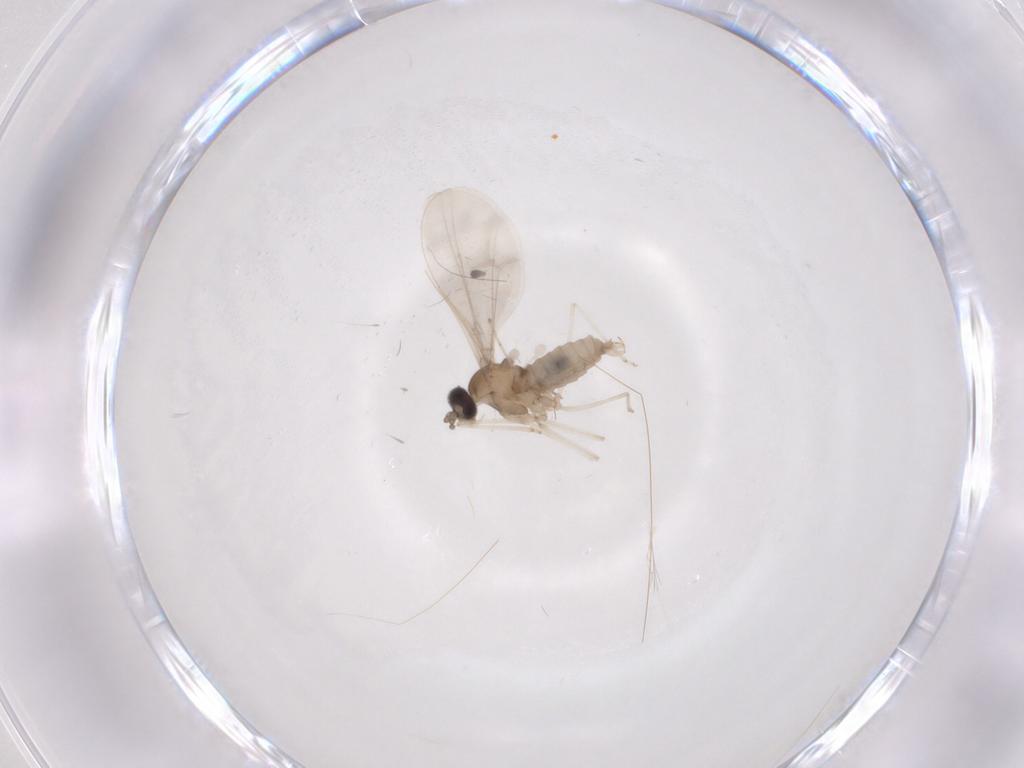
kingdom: Animalia
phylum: Arthropoda
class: Insecta
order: Diptera
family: Cecidomyiidae
